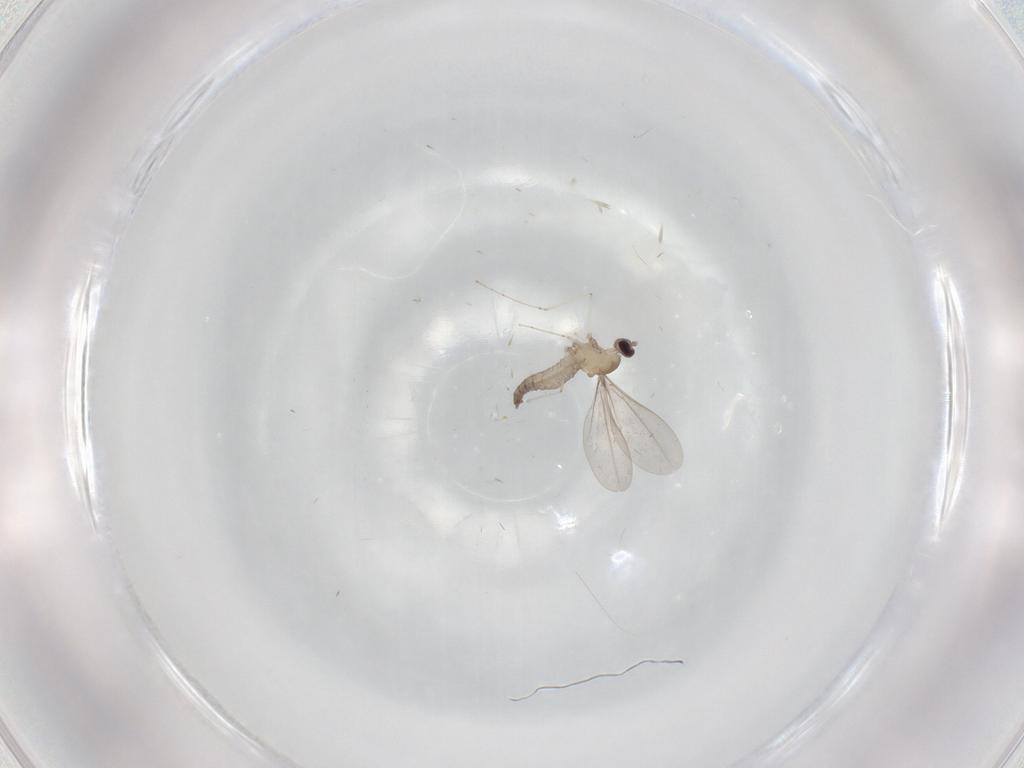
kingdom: Animalia
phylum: Arthropoda
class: Insecta
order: Diptera
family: Cecidomyiidae
